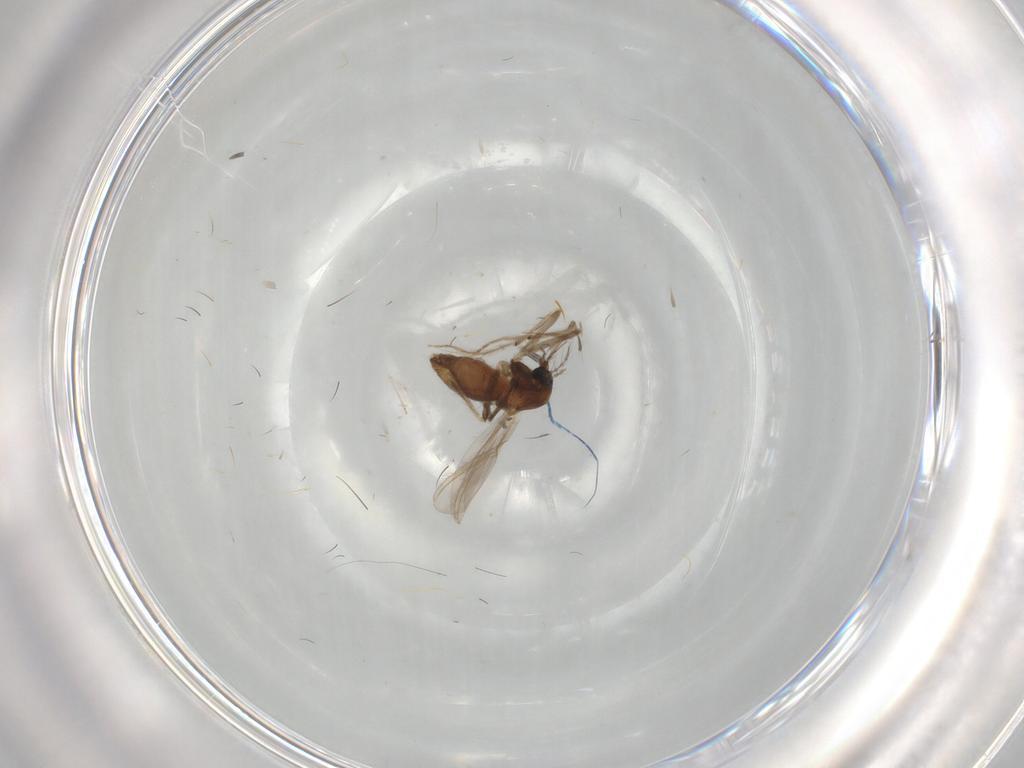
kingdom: Animalia
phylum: Arthropoda
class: Insecta
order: Diptera
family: Chironomidae
